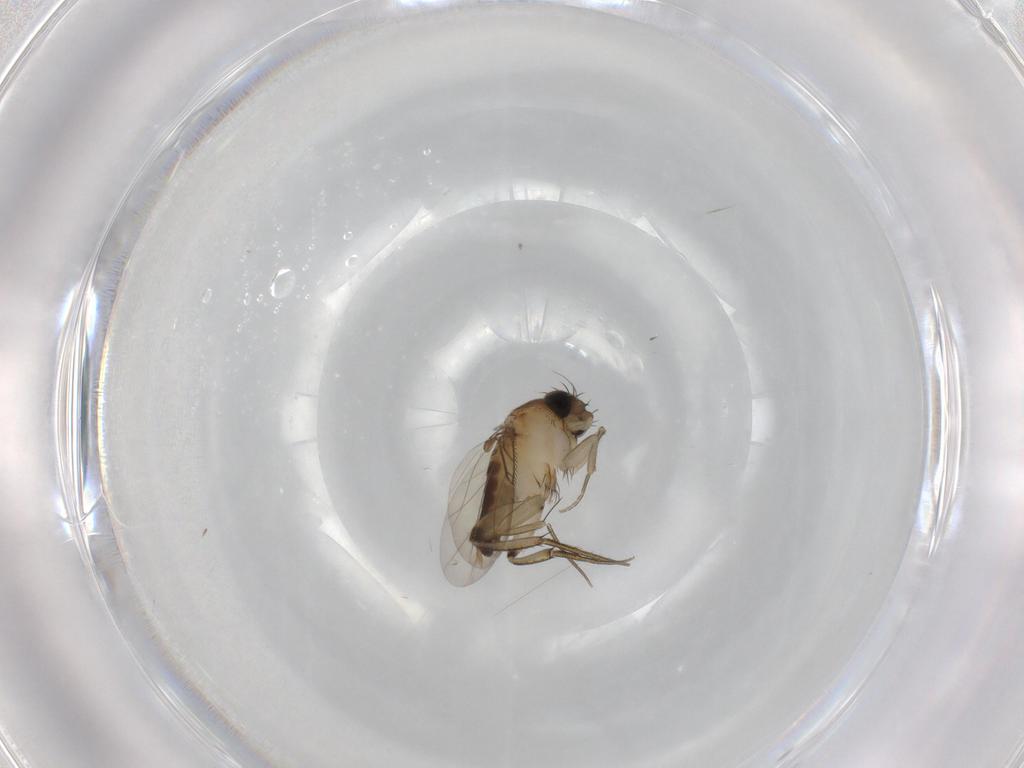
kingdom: Animalia
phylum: Arthropoda
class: Insecta
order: Diptera
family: Phoridae
